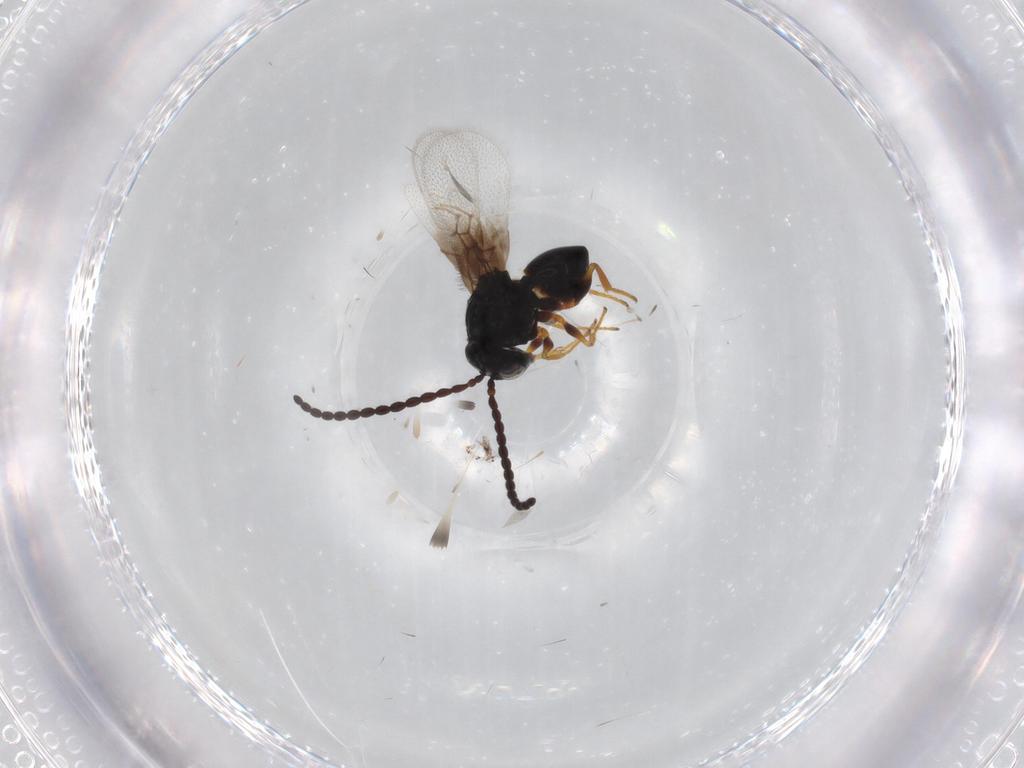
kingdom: Animalia
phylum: Arthropoda
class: Insecta
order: Hymenoptera
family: Figitidae
